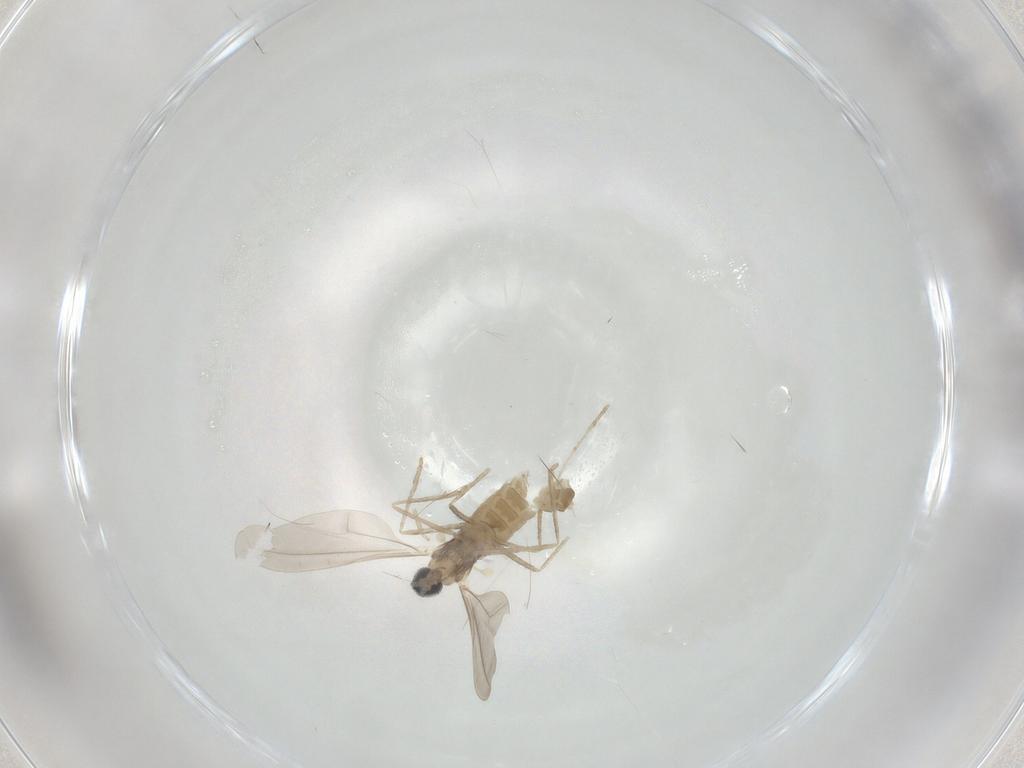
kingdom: Animalia
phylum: Arthropoda
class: Insecta
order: Diptera
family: Cecidomyiidae
